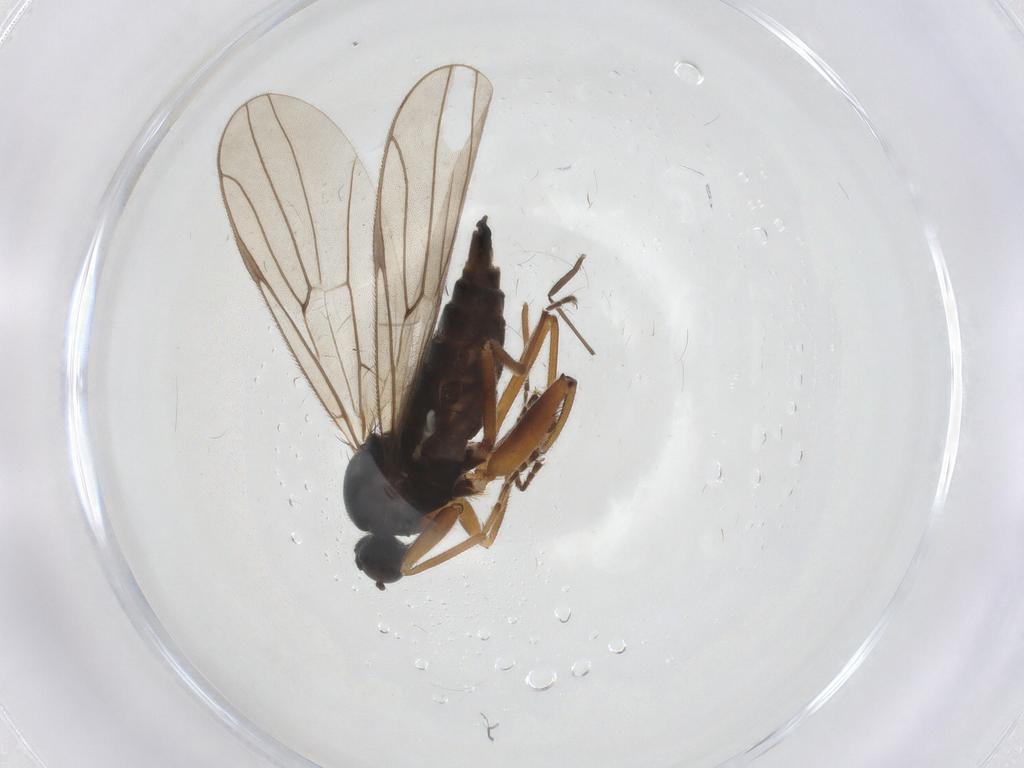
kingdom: Animalia
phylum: Arthropoda
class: Insecta
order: Diptera
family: Hybotidae
